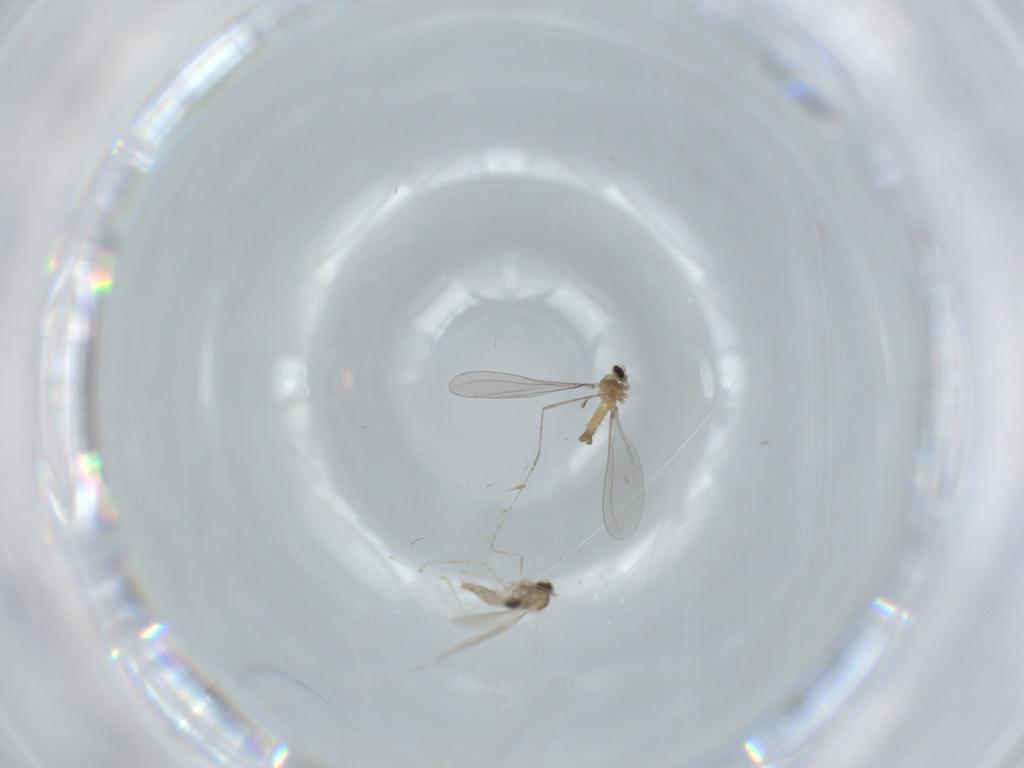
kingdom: Animalia
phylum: Arthropoda
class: Insecta
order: Diptera
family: Cecidomyiidae
